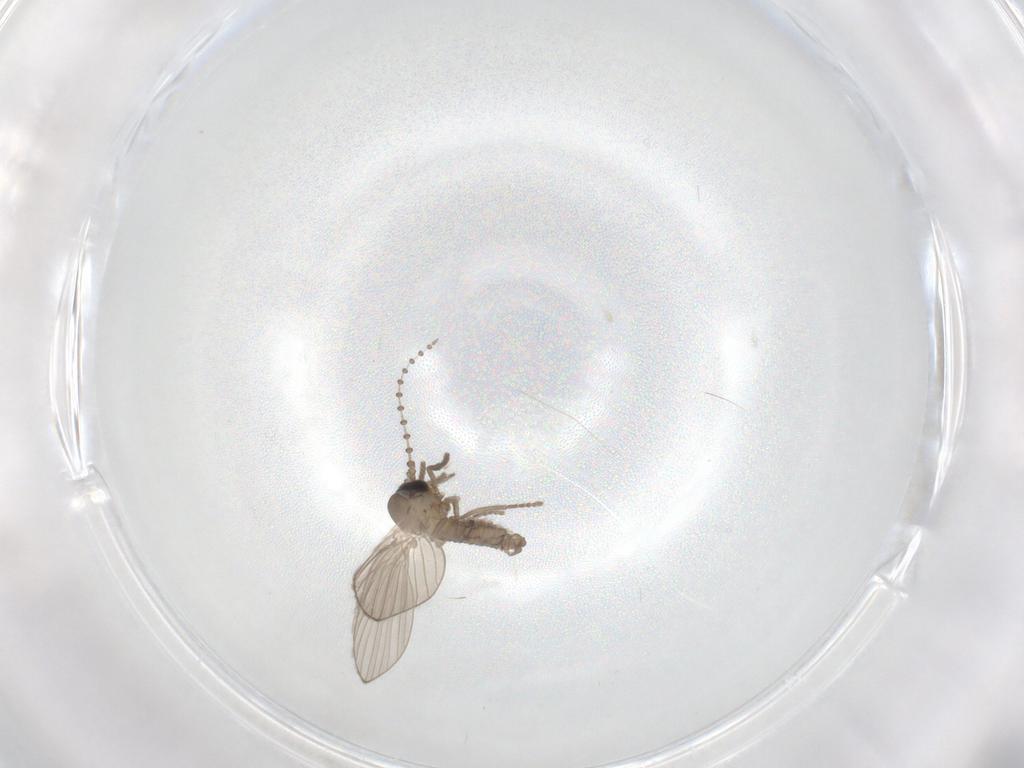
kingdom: Animalia
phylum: Arthropoda
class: Insecta
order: Diptera
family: Psychodidae
